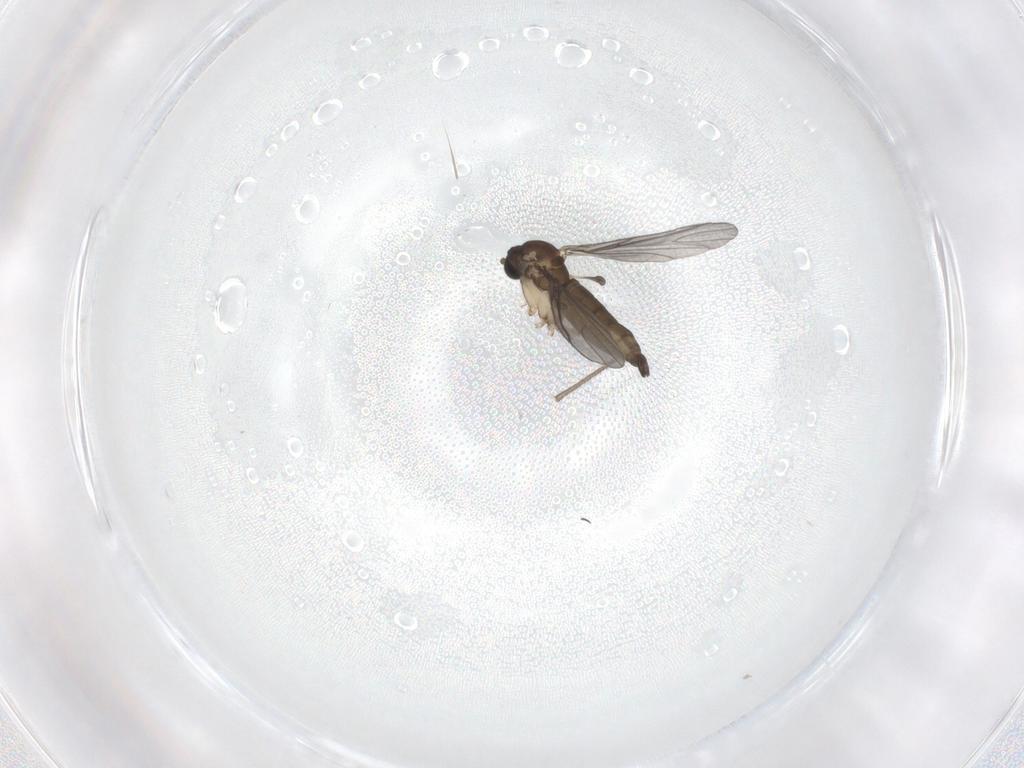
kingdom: Animalia
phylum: Arthropoda
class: Insecta
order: Diptera
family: Sciaridae
